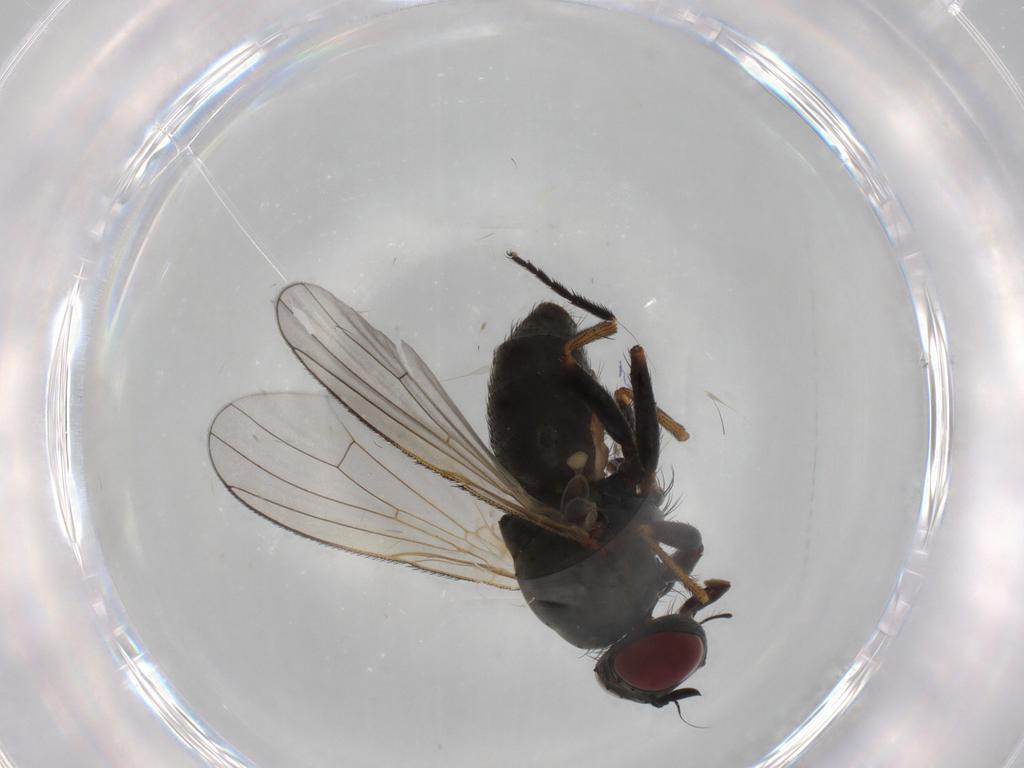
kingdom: Animalia
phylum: Arthropoda
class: Insecta
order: Diptera
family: Muscidae
